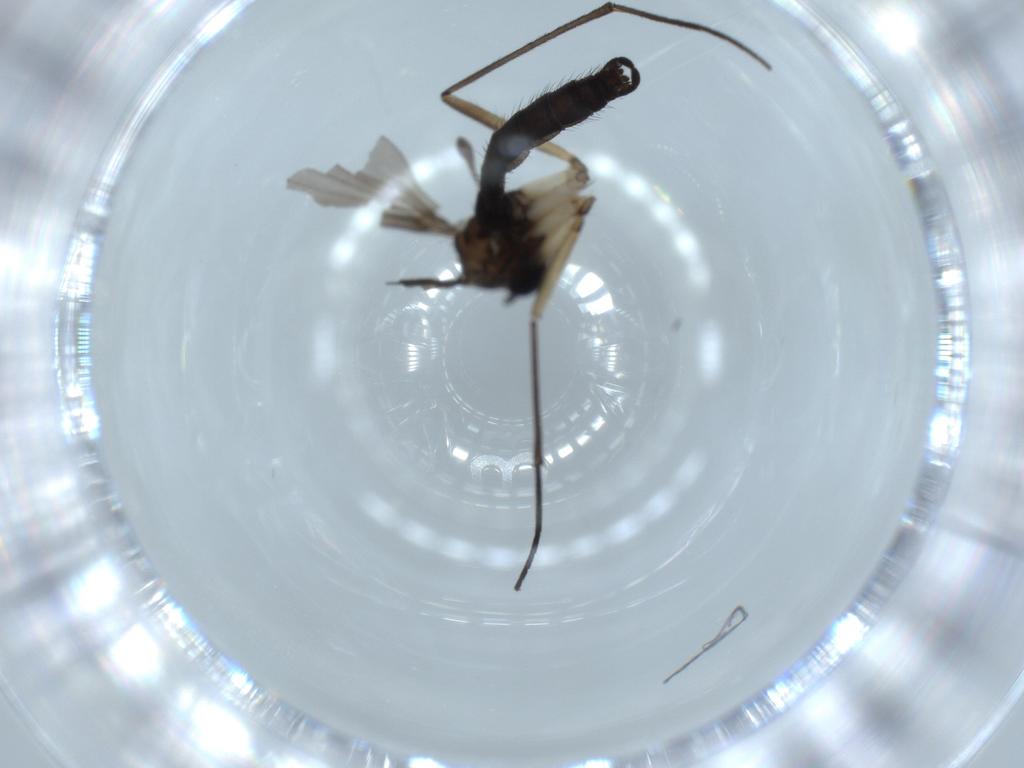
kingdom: Animalia
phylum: Arthropoda
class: Insecta
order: Diptera
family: Sciaridae
